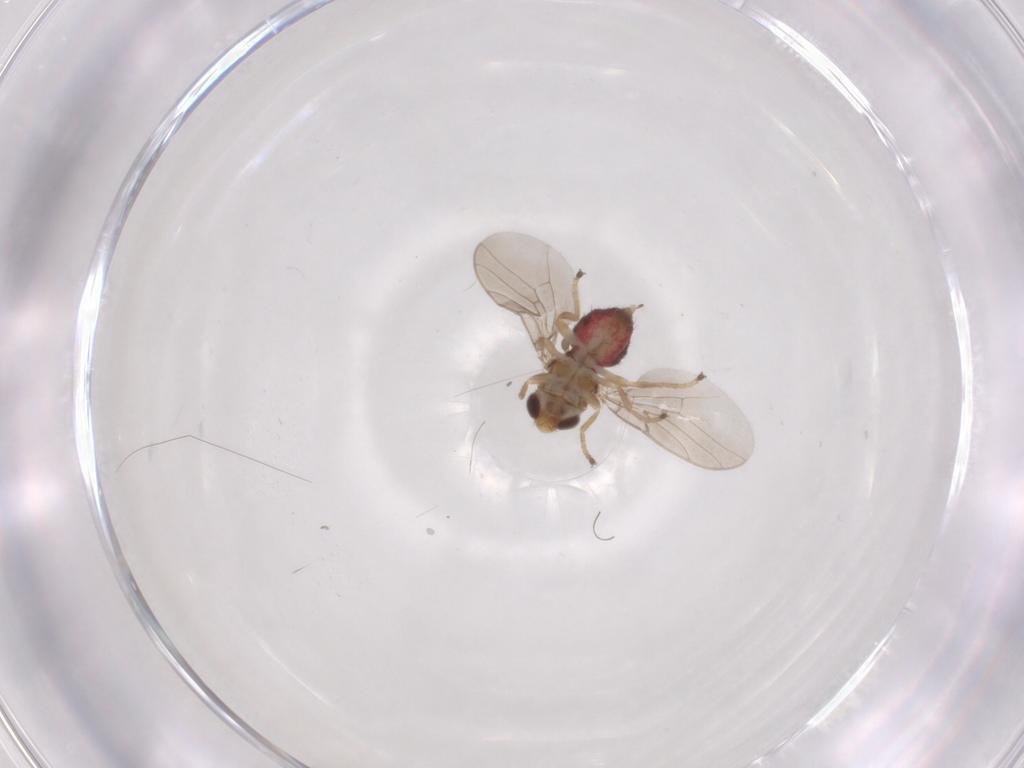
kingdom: Animalia
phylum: Arthropoda
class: Insecta
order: Diptera
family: Chloropidae
